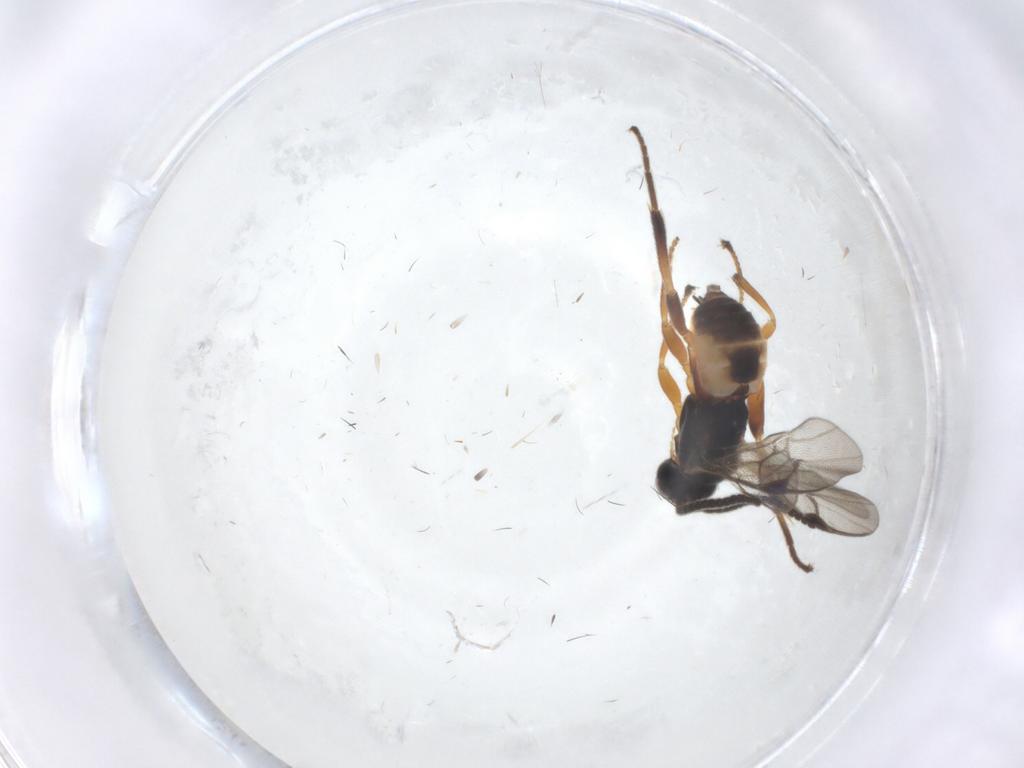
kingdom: Animalia
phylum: Arthropoda
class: Insecta
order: Hymenoptera
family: Braconidae
